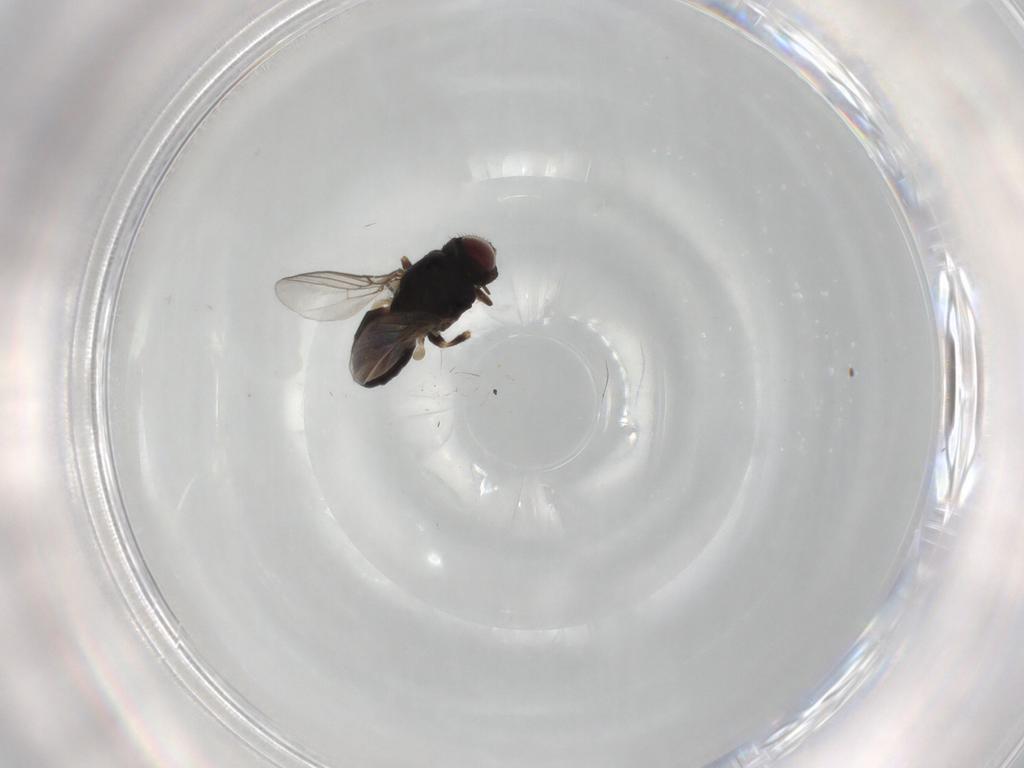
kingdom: Animalia
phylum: Arthropoda
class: Insecta
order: Diptera
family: Chloropidae
